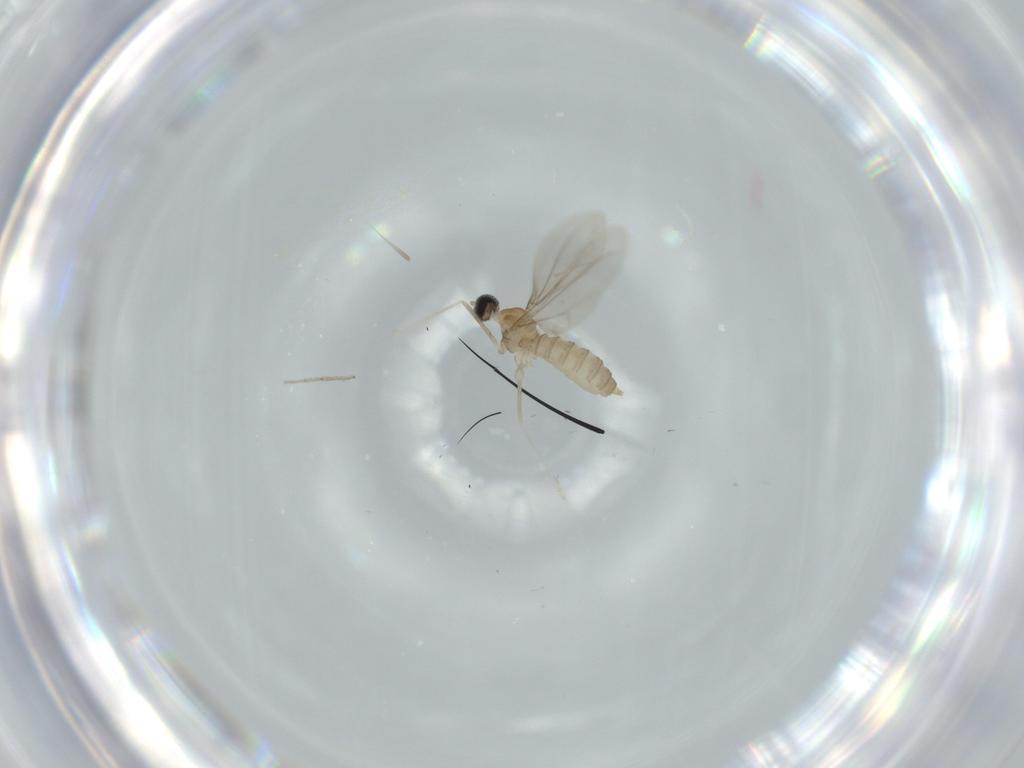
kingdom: Animalia
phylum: Arthropoda
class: Insecta
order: Diptera
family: Chironomidae
